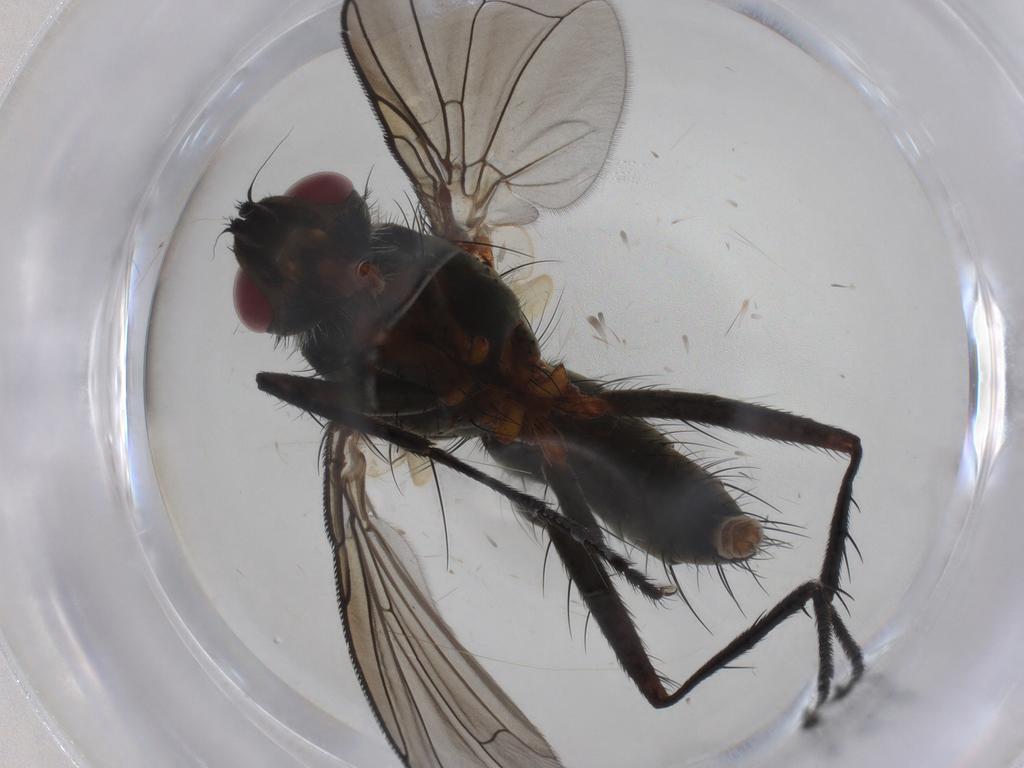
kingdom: Animalia
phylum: Arthropoda
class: Insecta
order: Diptera
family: Tachinidae
